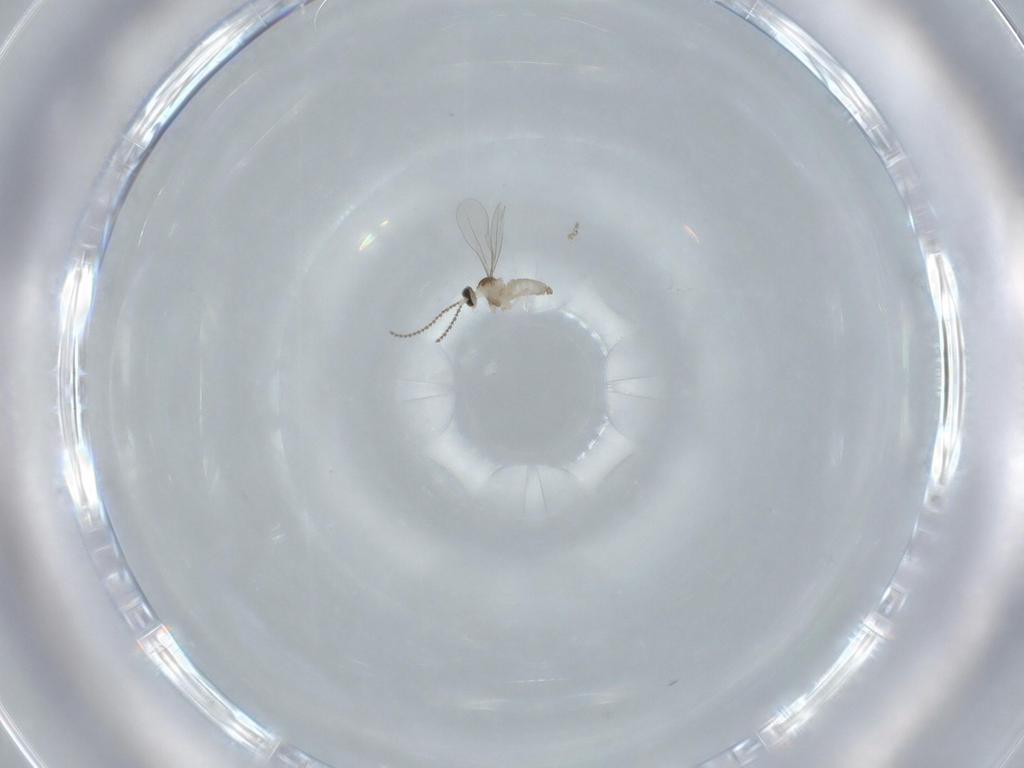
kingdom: Animalia
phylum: Arthropoda
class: Insecta
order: Diptera
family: Cecidomyiidae
